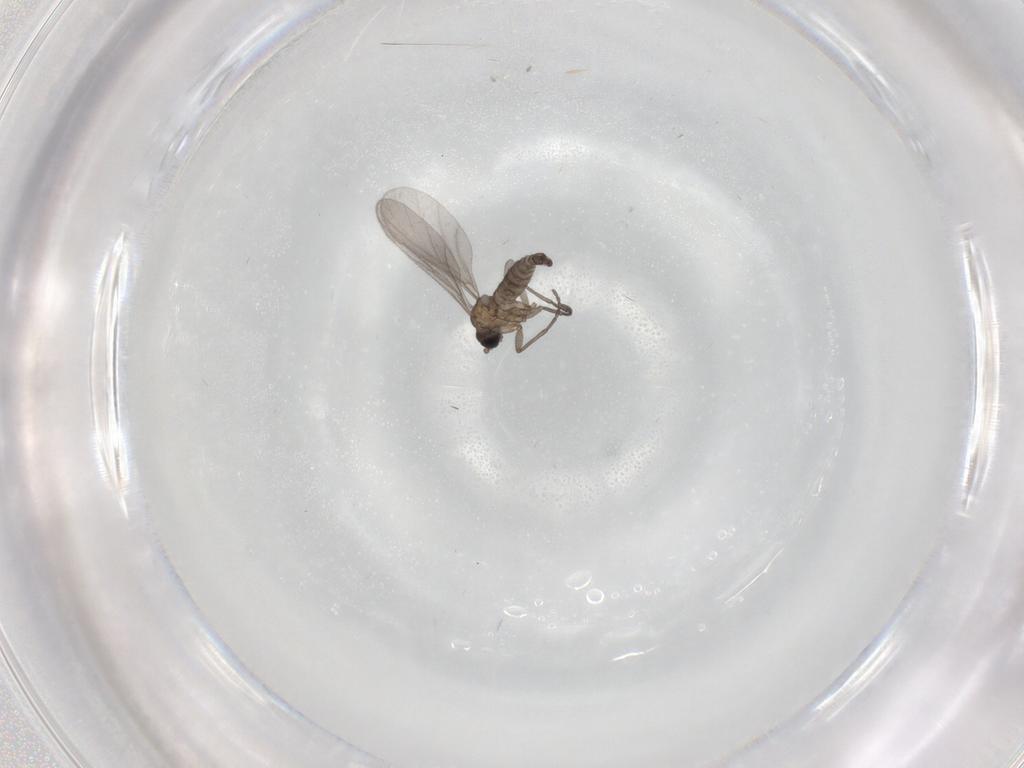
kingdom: Animalia
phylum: Arthropoda
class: Insecta
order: Diptera
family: Sciaridae
